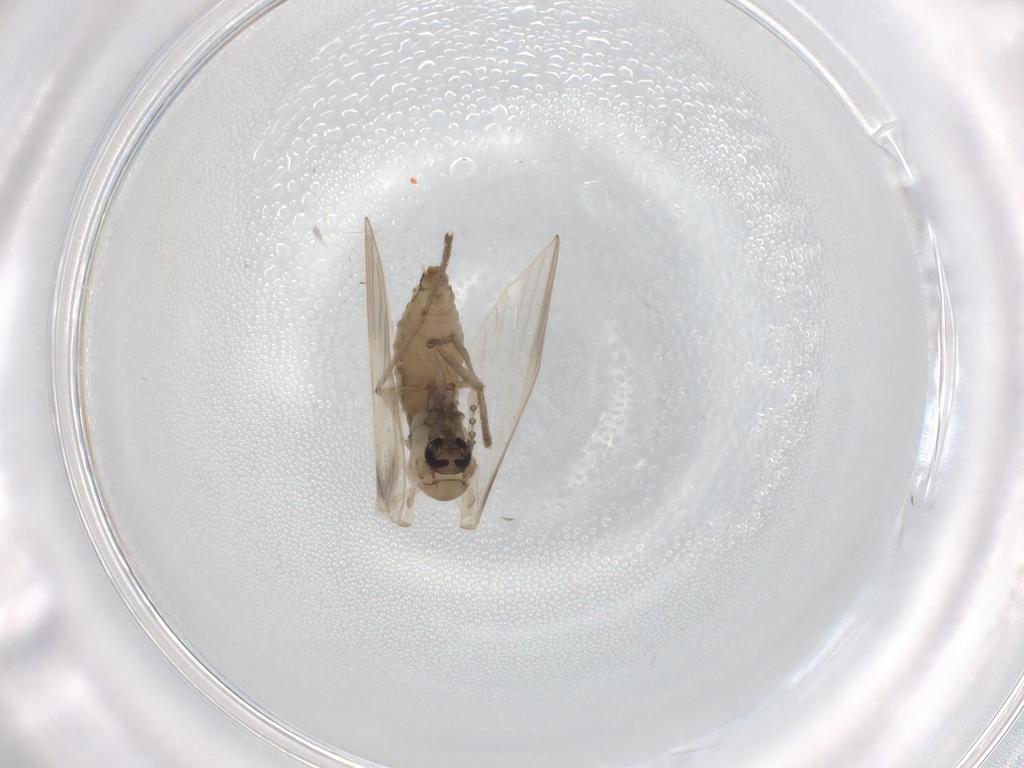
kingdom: Animalia
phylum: Arthropoda
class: Insecta
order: Diptera
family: Psychodidae
